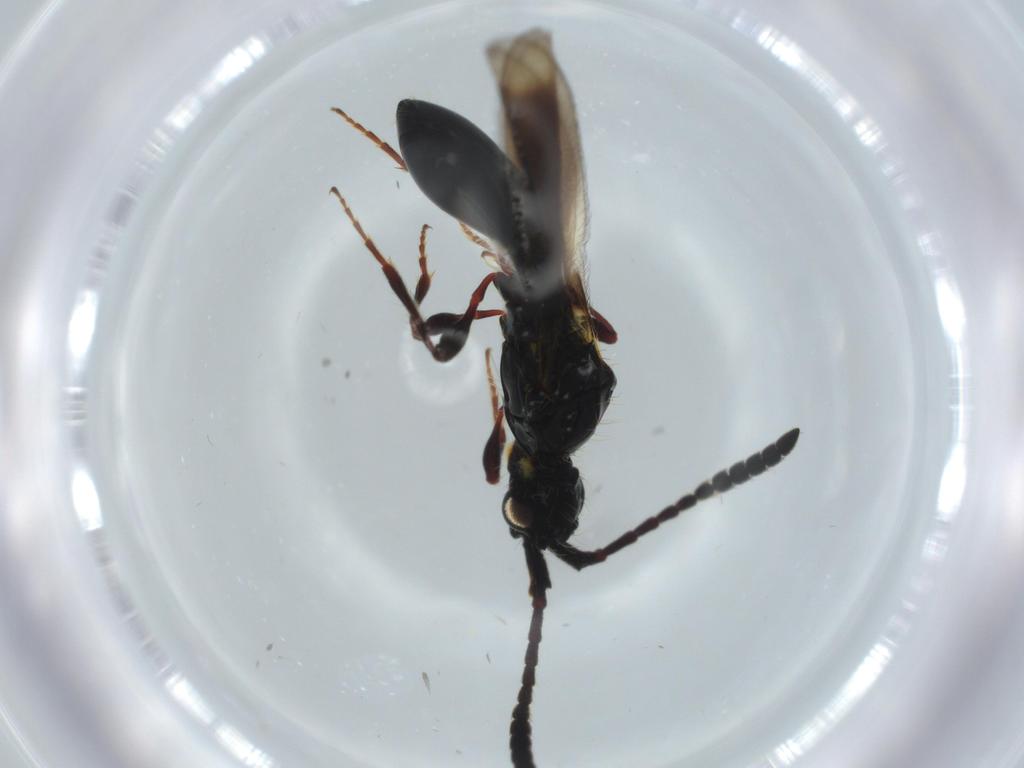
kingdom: Animalia
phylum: Arthropoda
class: Insecta
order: Hymenoptera
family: Diapriidae
